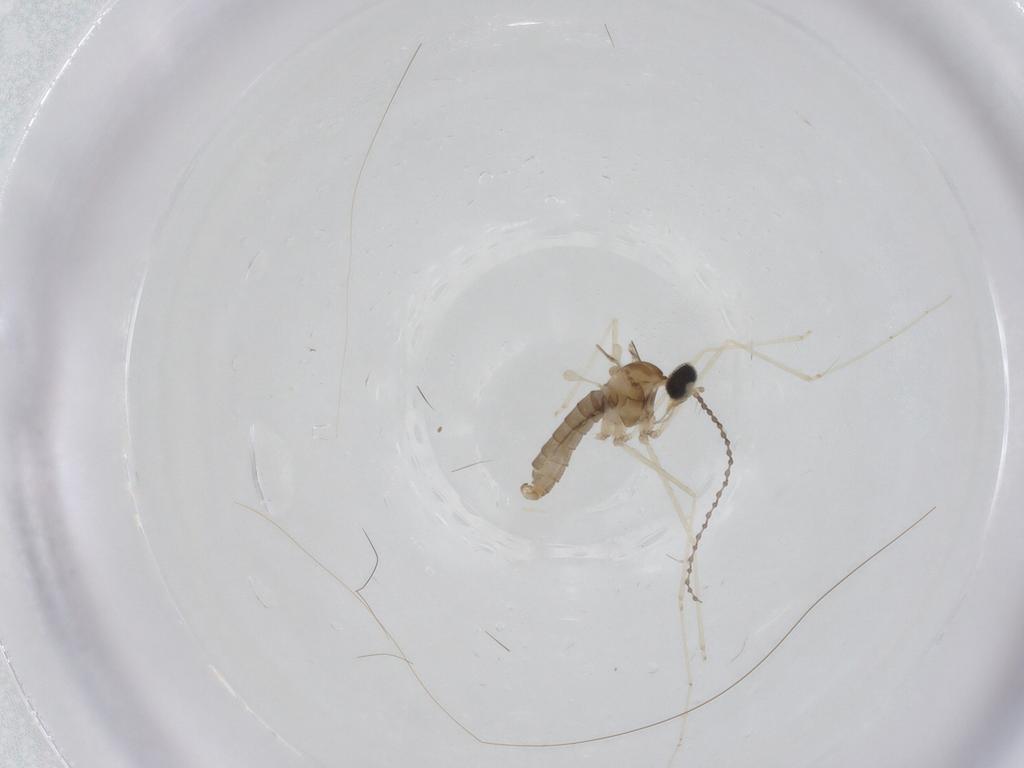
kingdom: Animalia
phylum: Arthropoda
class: Insecta
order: Diptera
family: Cecidomyiidae
